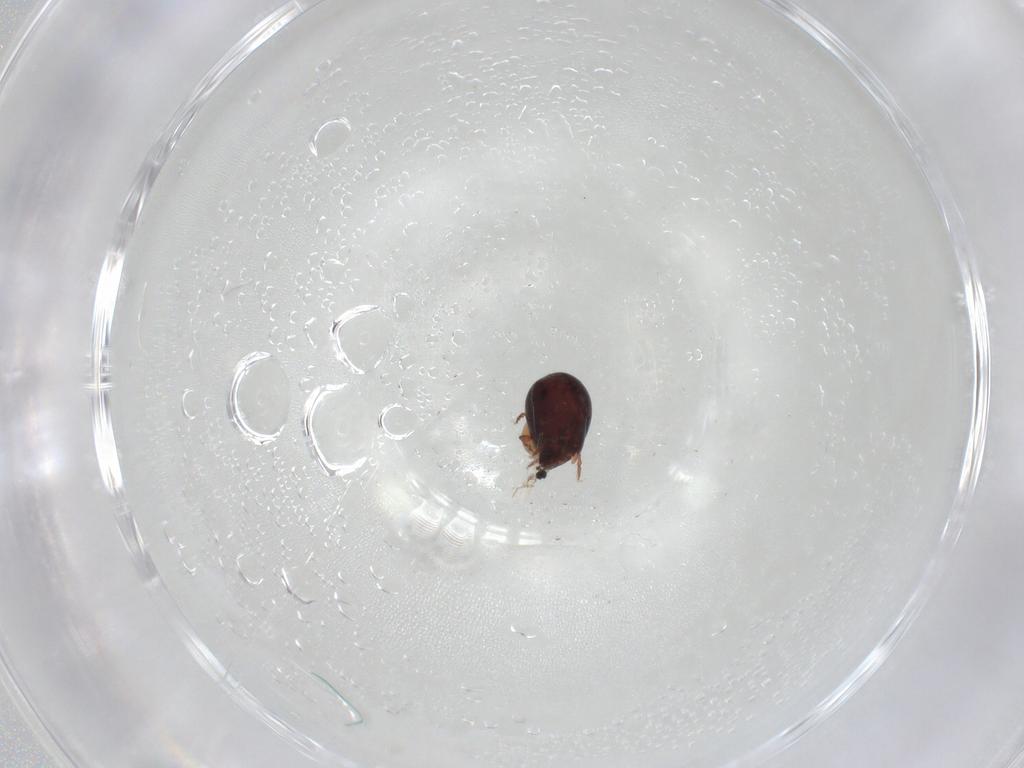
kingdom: Animalia
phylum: Arthropoda
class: Arachnida
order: Sarcoptiformes
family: Galumnidae
